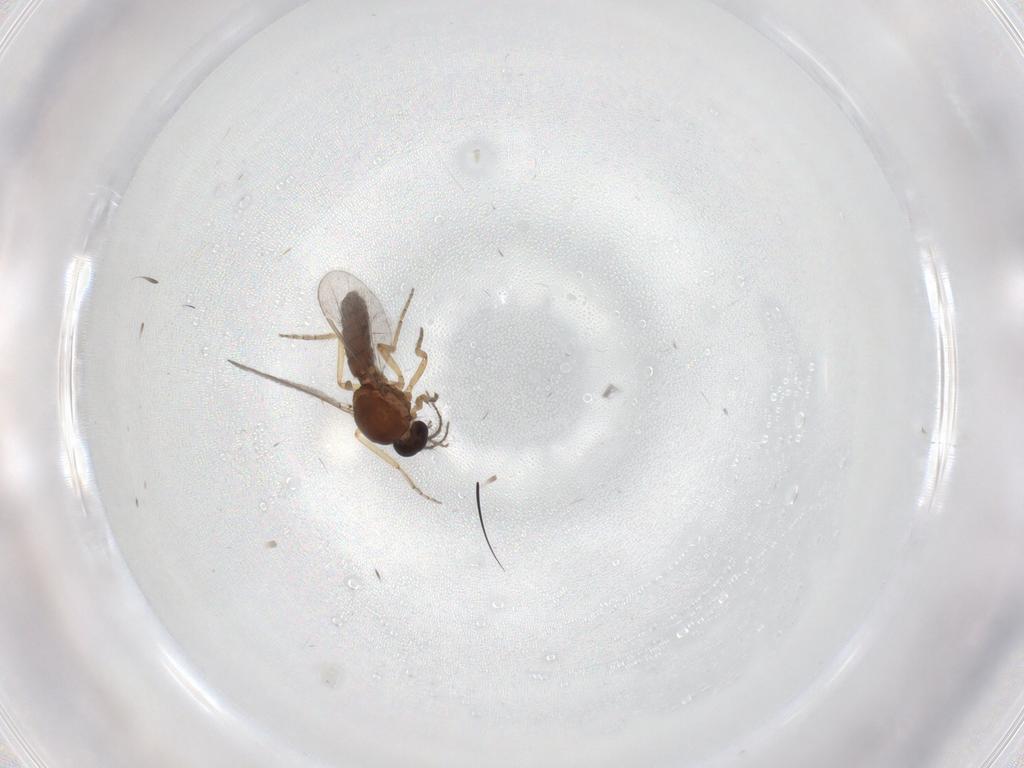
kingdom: Animalia
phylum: Arthropoda
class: Insecta
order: Diptera
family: Ceratopogonidae
